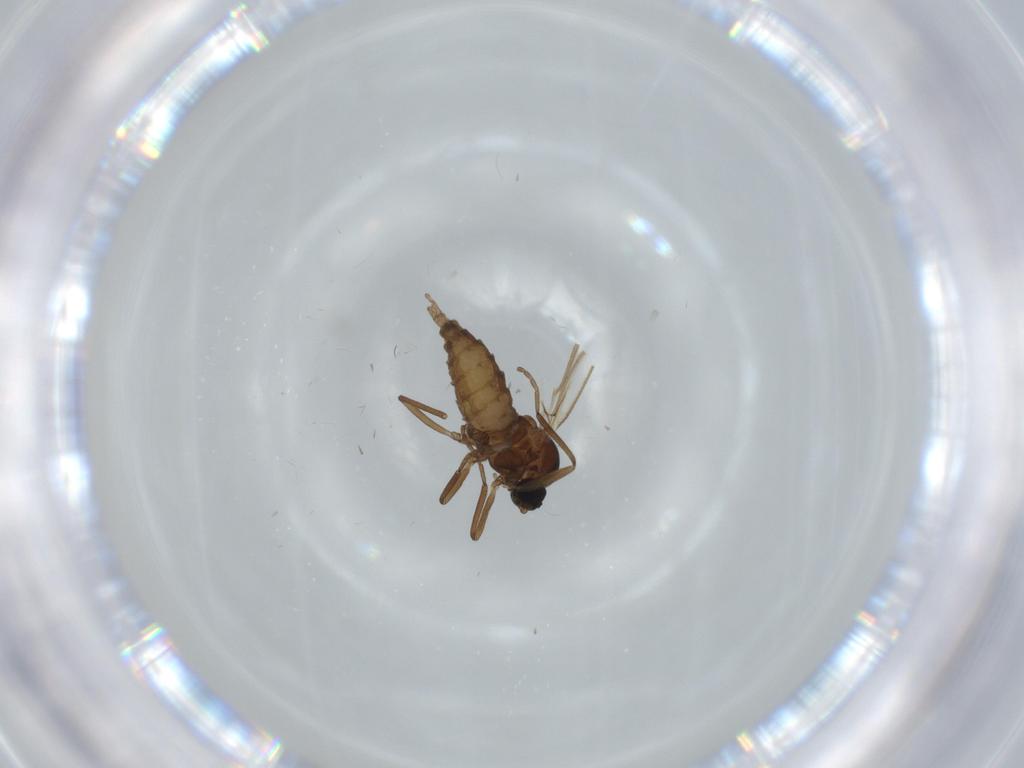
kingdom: Animalia
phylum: Arthropoda
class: Insecta
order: Diptera
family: Cecidomyiidae
